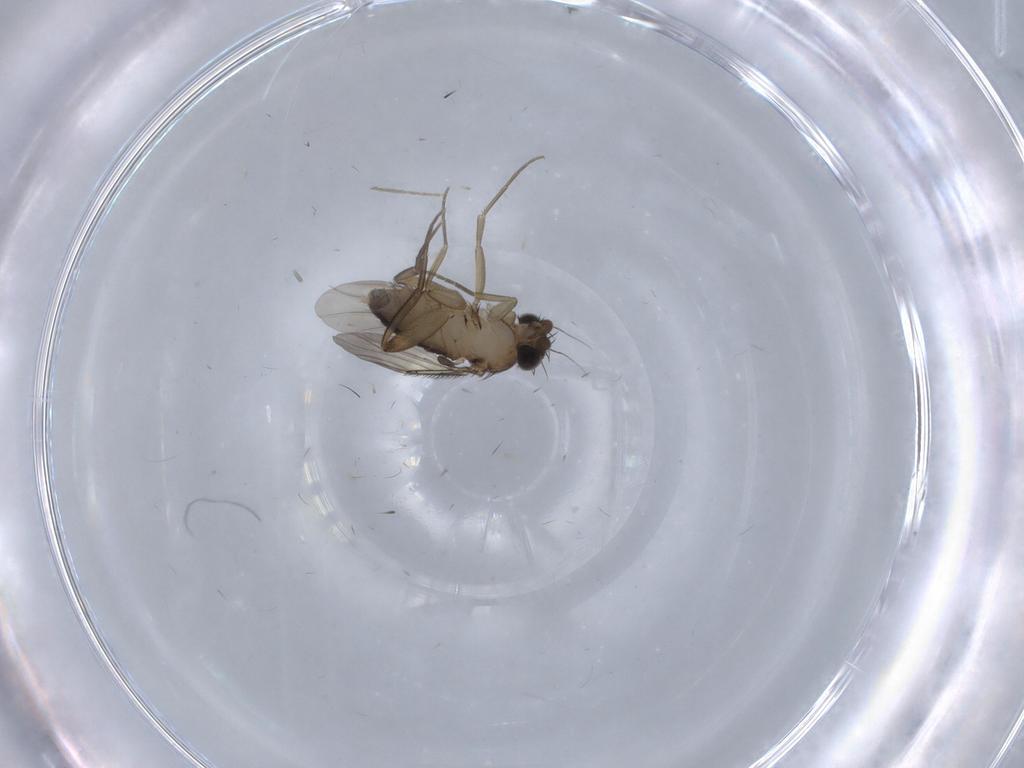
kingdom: Animalia
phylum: Arthropoda
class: Insecta
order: Diptera
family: Phoridae
